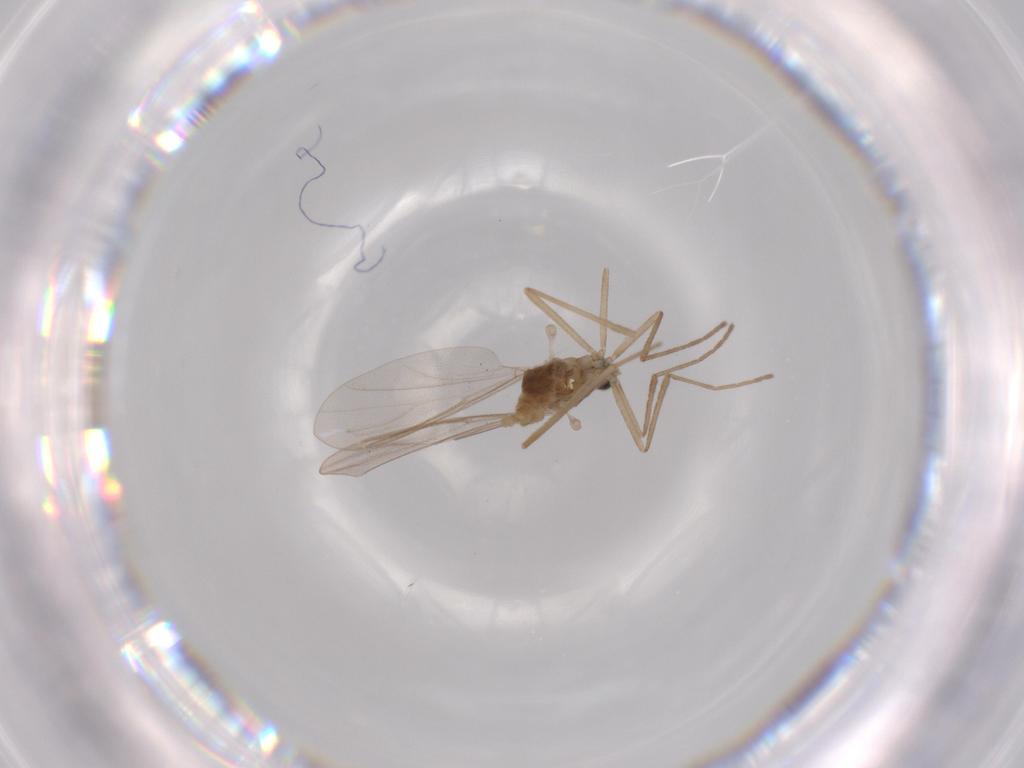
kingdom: Animalia
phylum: Arthropoda
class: Insecta
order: Diptera
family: Cecidomyiidae
